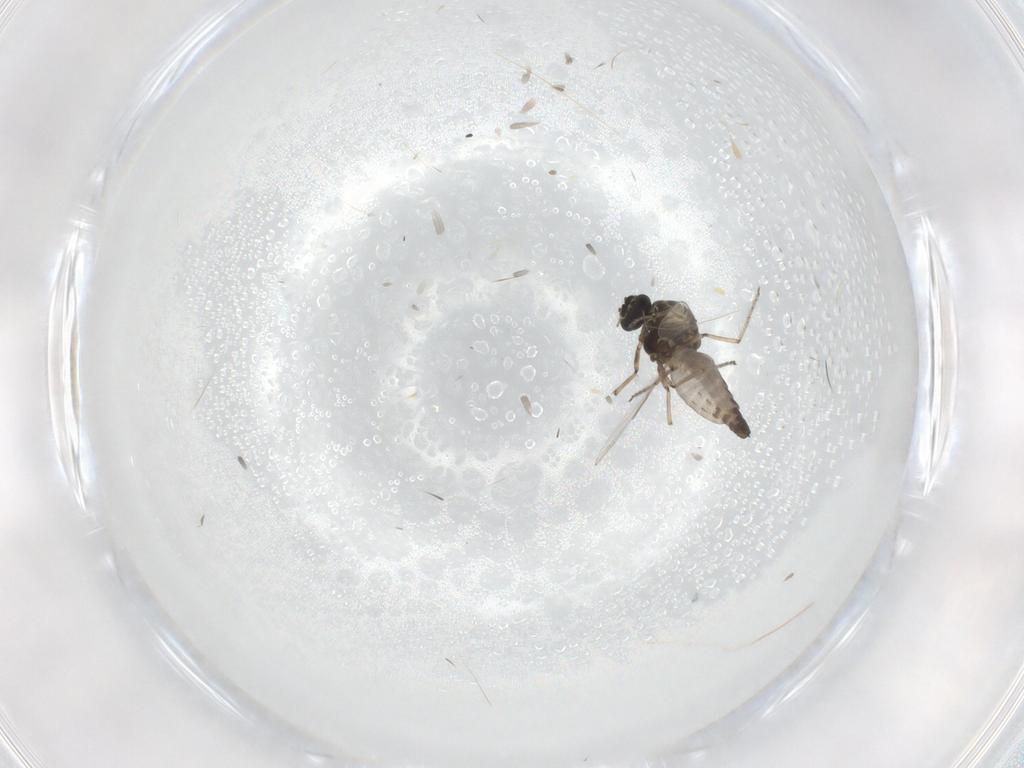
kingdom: Animalia
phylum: Arthropoda
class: Insecta
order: Diptera
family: Ceratopogonidae
